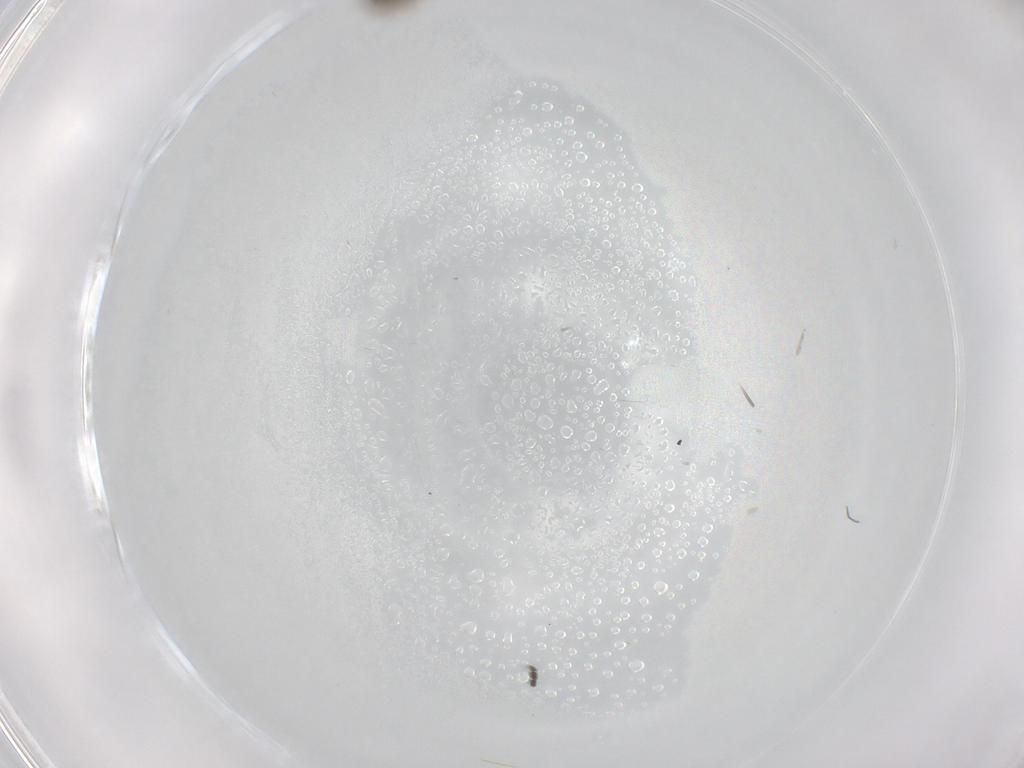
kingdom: Animalia
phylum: Arthropoda
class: Insecta
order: Diptera
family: Psychodidae
